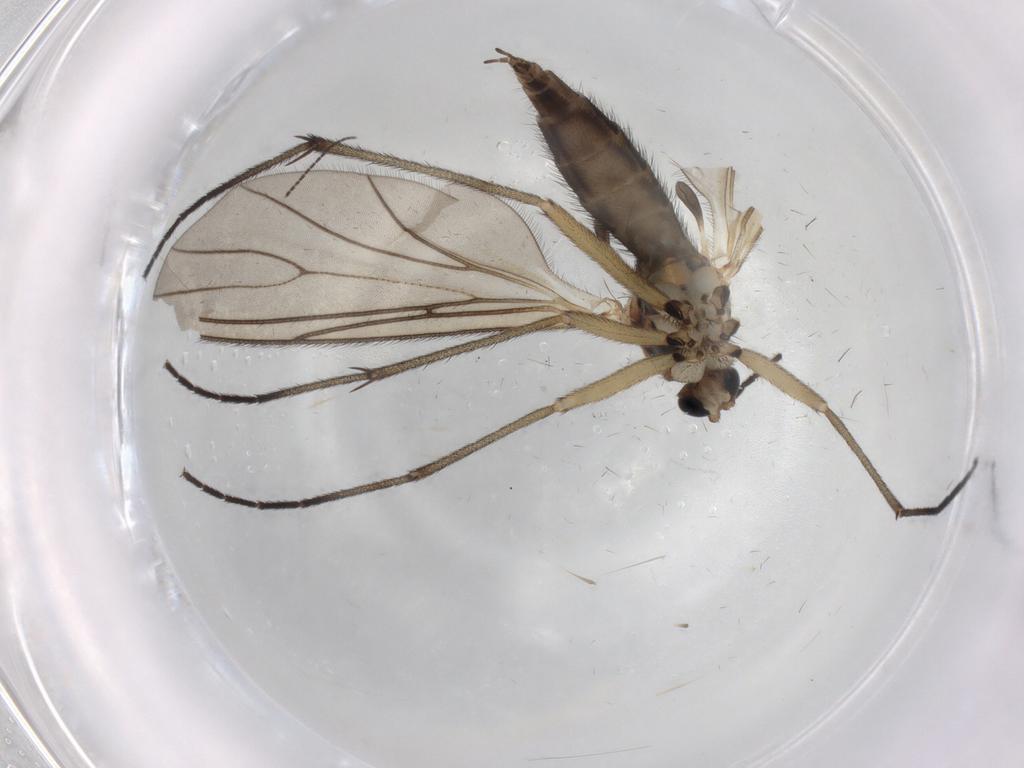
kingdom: Animalia
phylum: Arthropoda
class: Insecta
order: Diptera
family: Sciaridae
